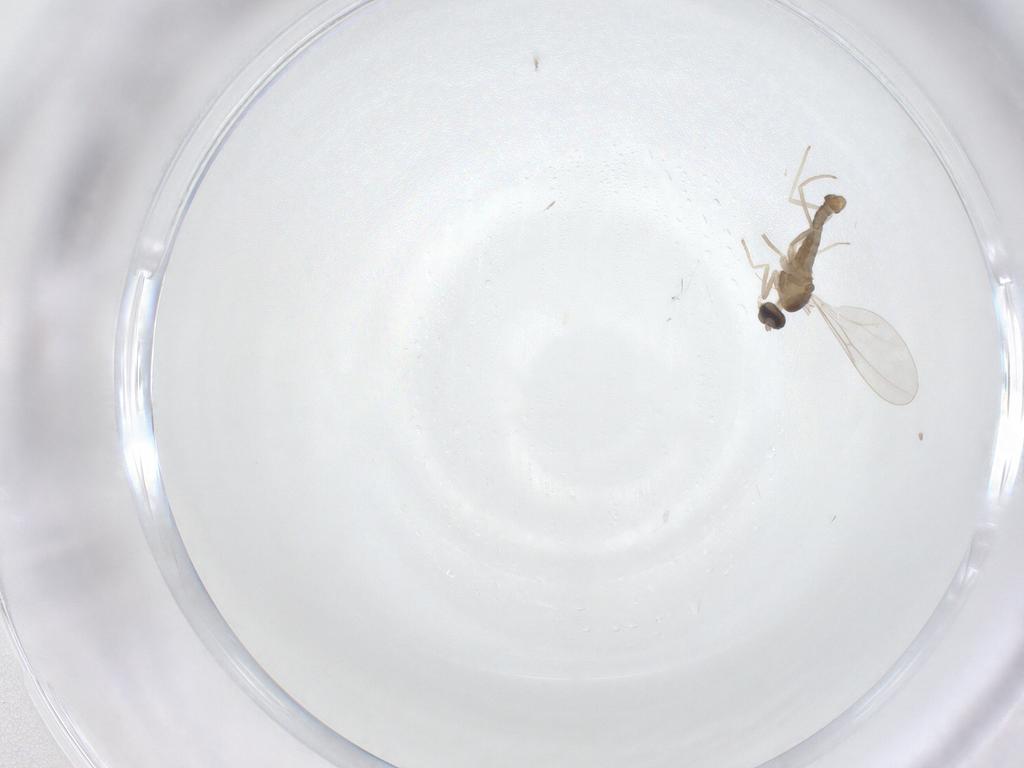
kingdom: Animalia
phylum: Arthropoda
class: Insecta
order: Diptera
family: Cecidomyiidae
